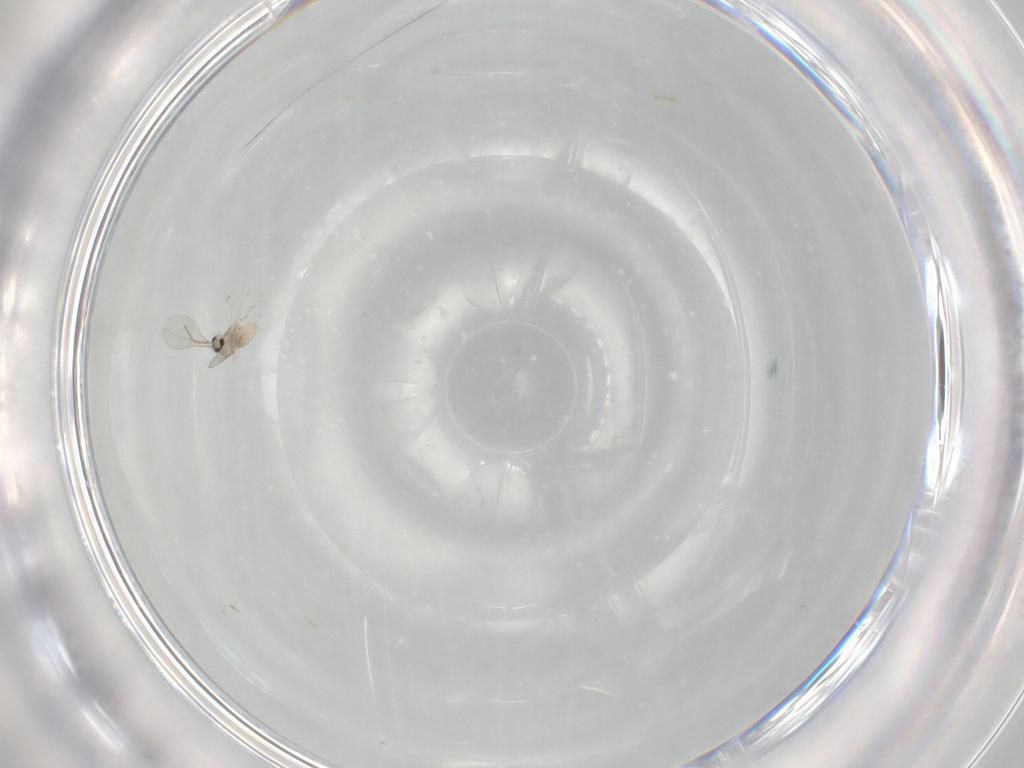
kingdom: Animalia
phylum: Arthropoda
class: Insecta
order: Diptera
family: Cecidomyiidae
